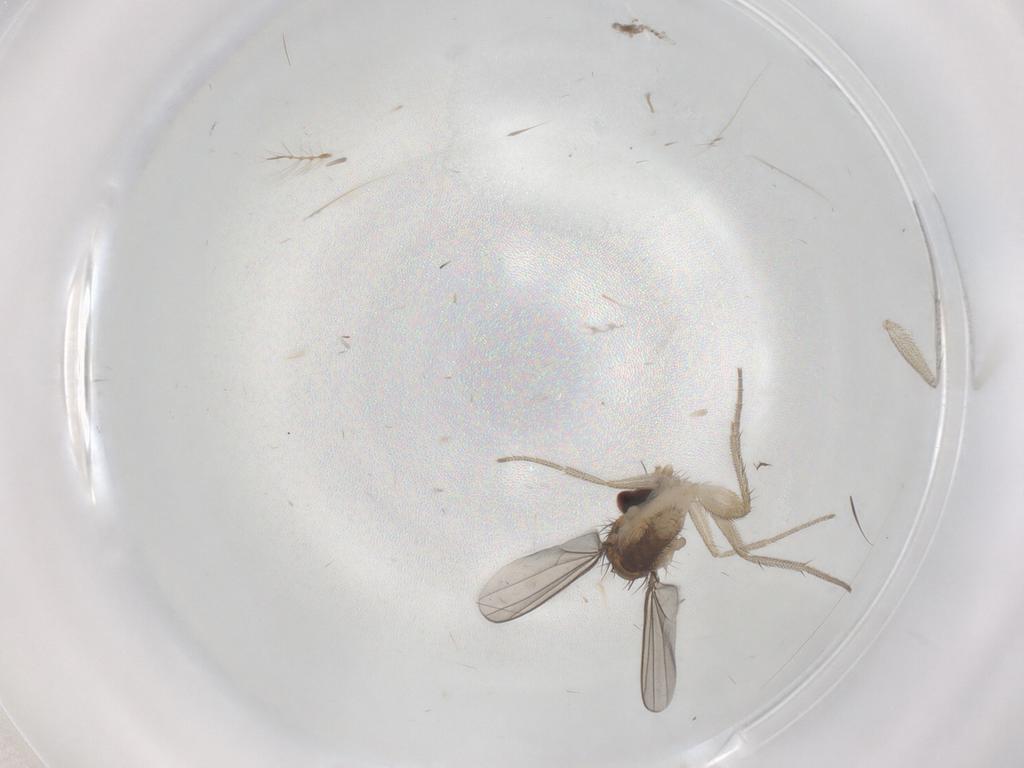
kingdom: Animalia
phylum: Arthropoda
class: Insecta
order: Diptera
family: Dolichopodidae
